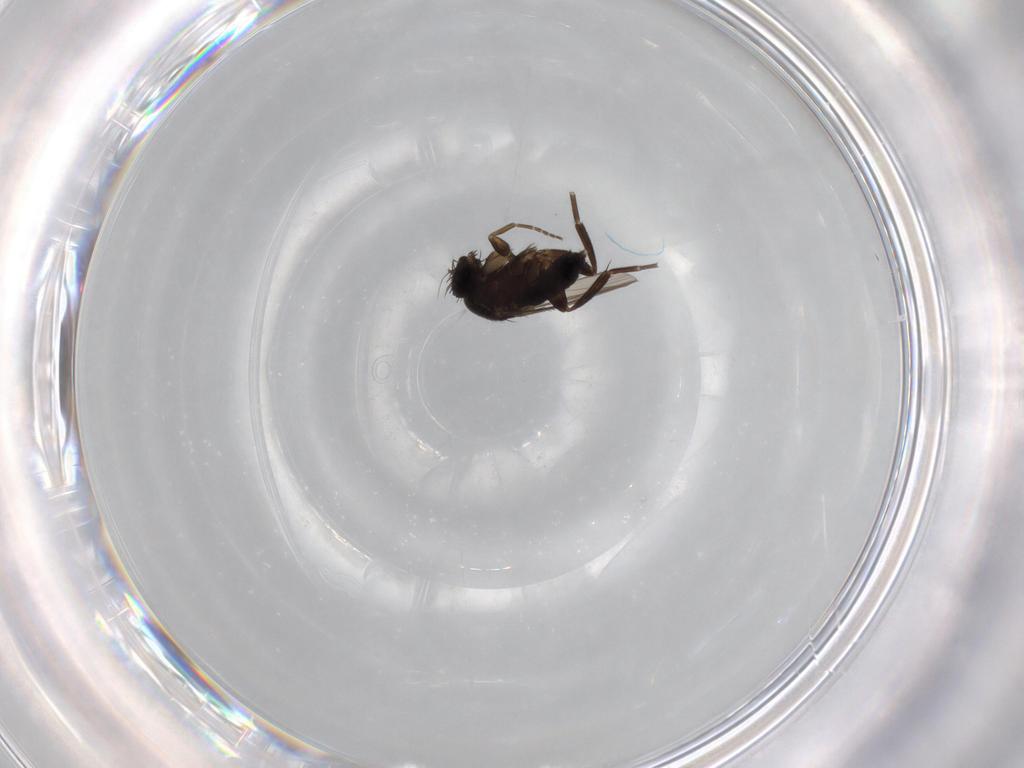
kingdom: Animalia
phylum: Arthropoda
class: Insecta
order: Diptera
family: Phoridae
